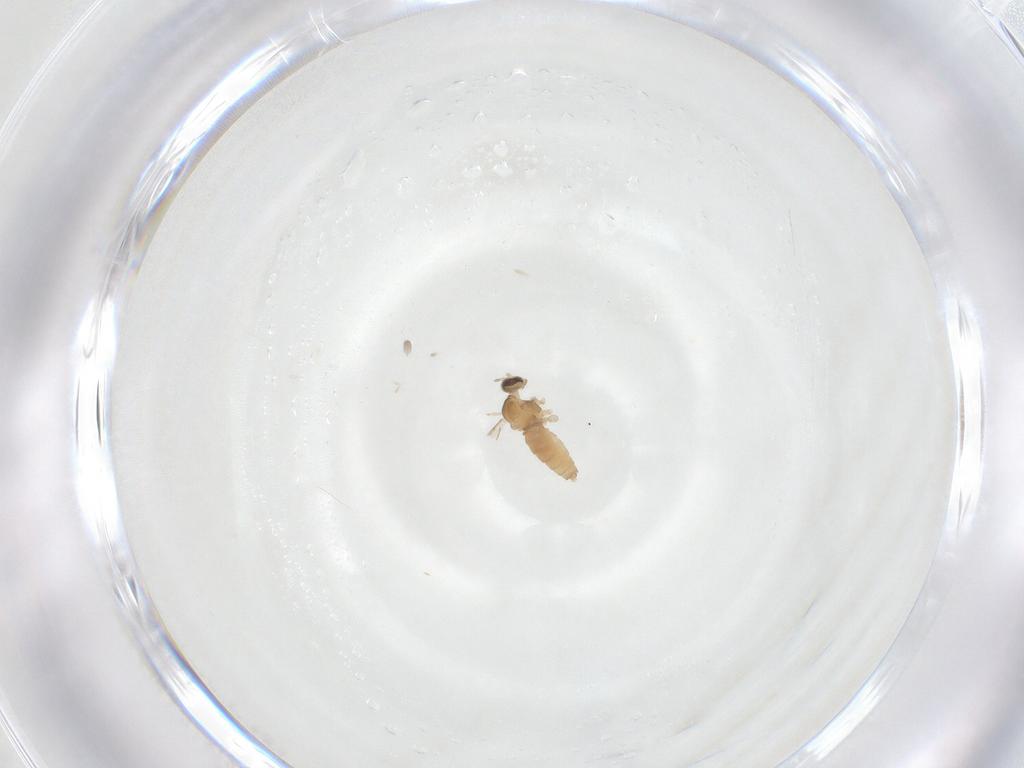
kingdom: Animalia
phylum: Arthropoda
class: Insecta
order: Diptera
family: Cecidomyiidae
